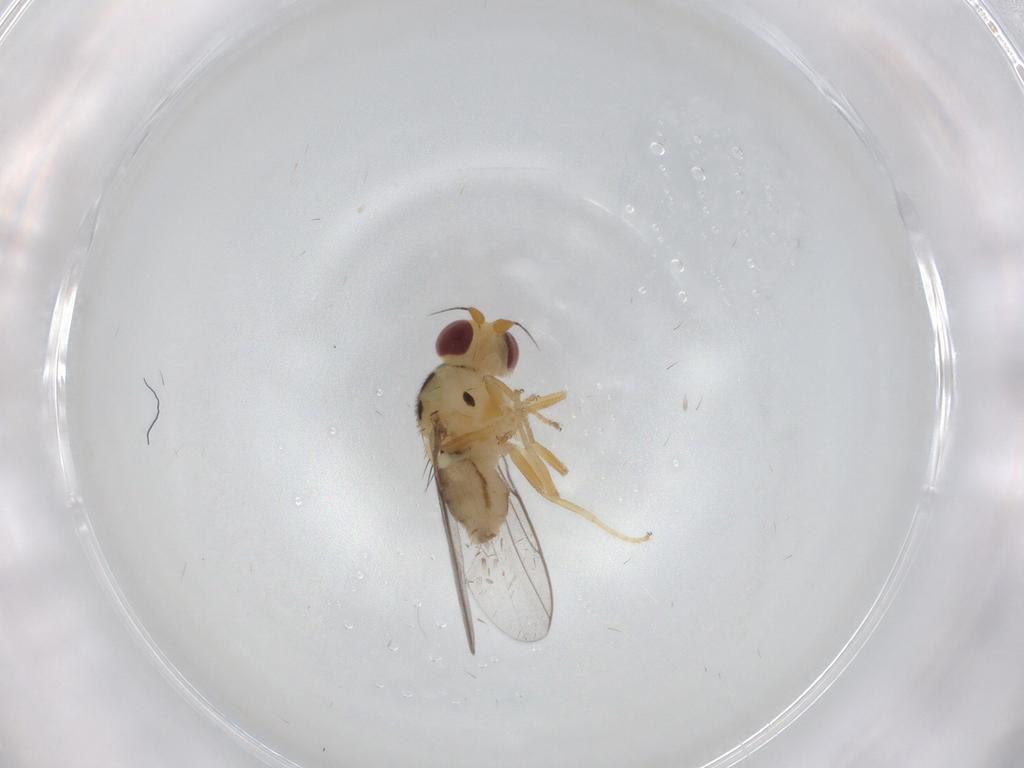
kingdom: Animalia
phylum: Arthropoda
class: Insecta
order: Diptera
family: Chloropidae
